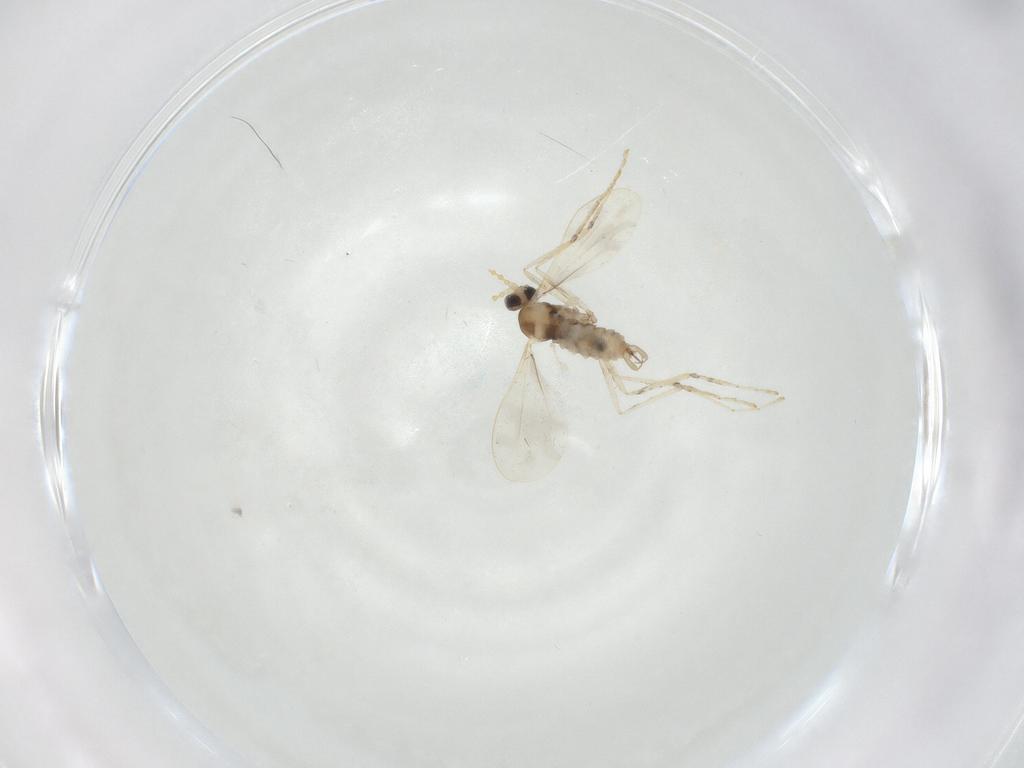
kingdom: Animalia
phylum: Arthropoda
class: Insecta
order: Diptera
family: Cecidomyiidae
